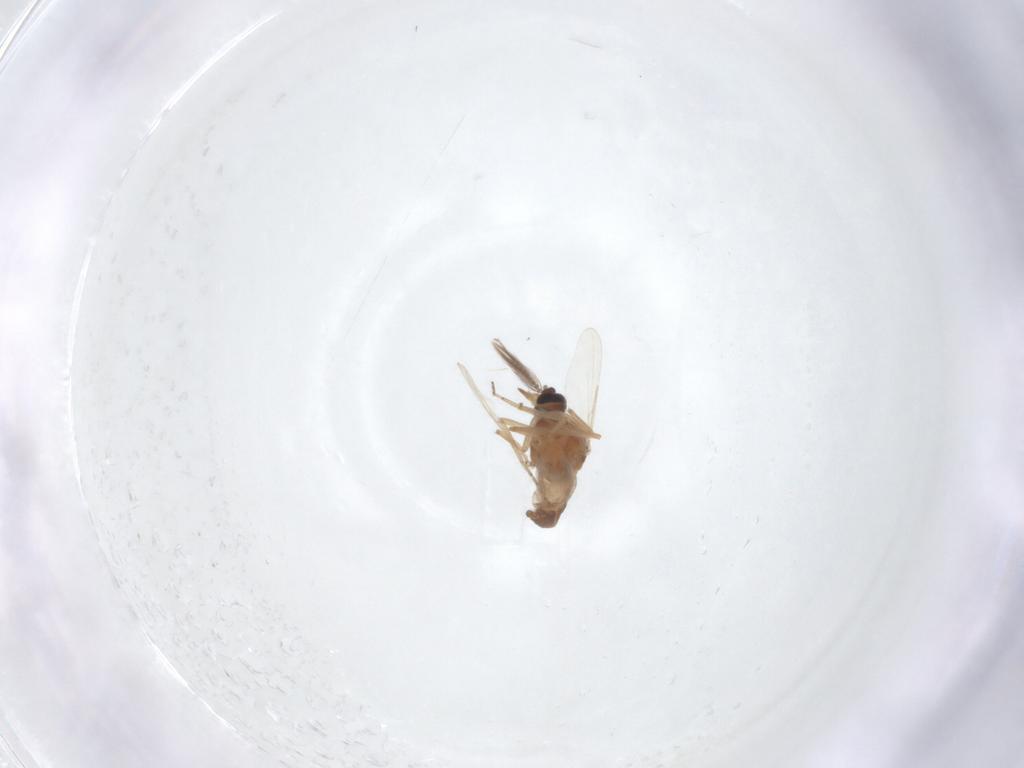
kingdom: Animalia
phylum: Arthropoda
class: Insecta
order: Diptera
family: Ceratopogonidae
